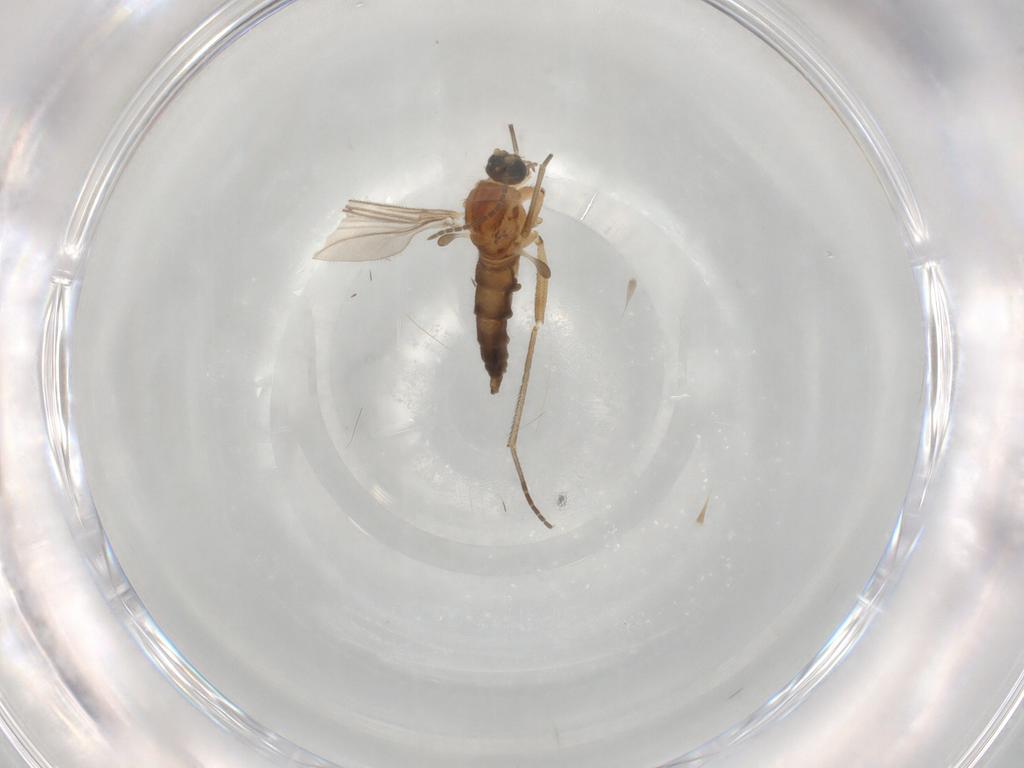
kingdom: Animalia
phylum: Arthropoda
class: Insecta
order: Diptera
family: Sciaridae
